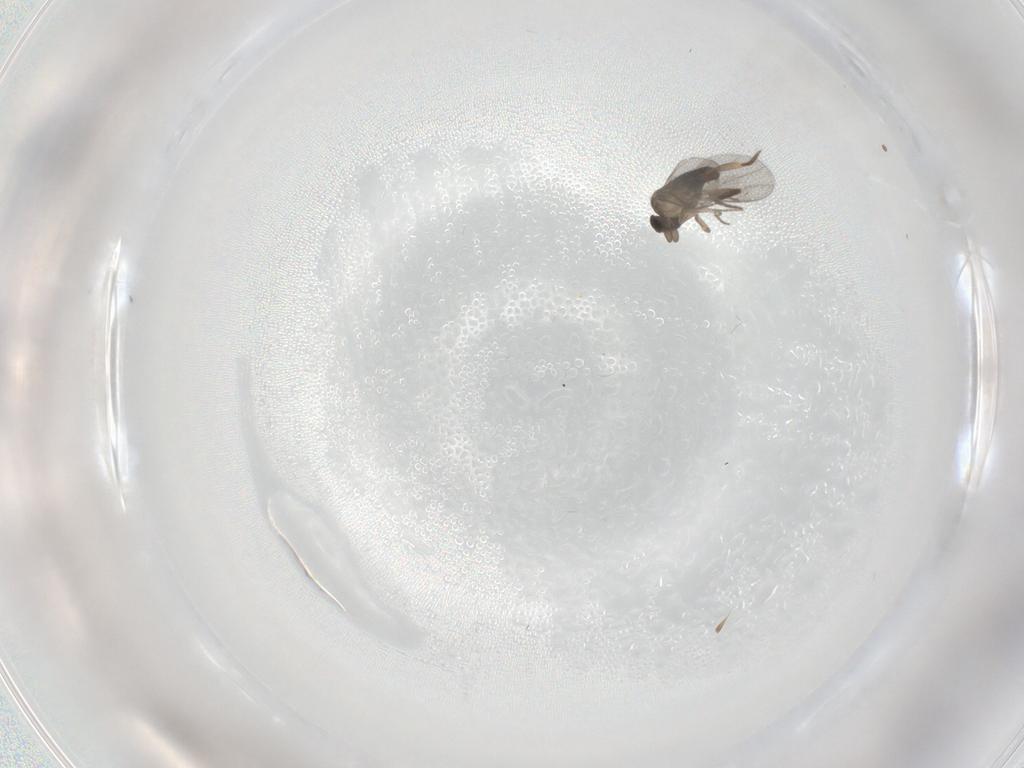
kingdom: Animalia
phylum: Arthropoda
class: Insecta
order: Diptera
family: Cecidomyiidae
